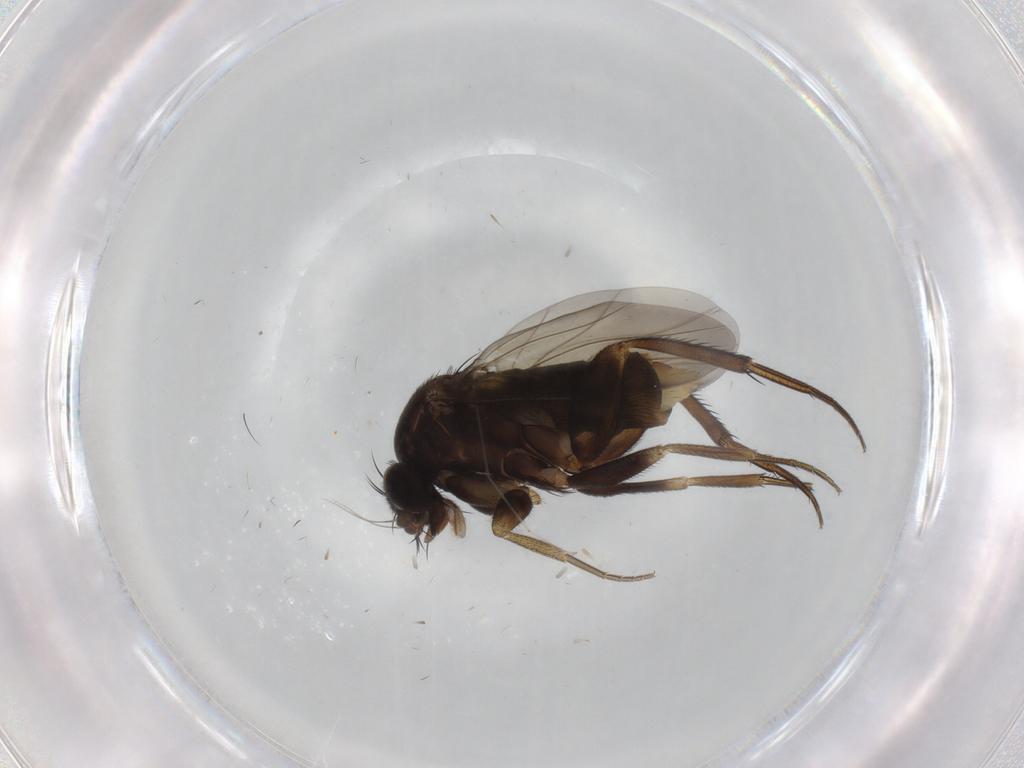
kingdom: Animalia
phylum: Arthropoda
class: Insecta
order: Diptera
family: Phoridae
